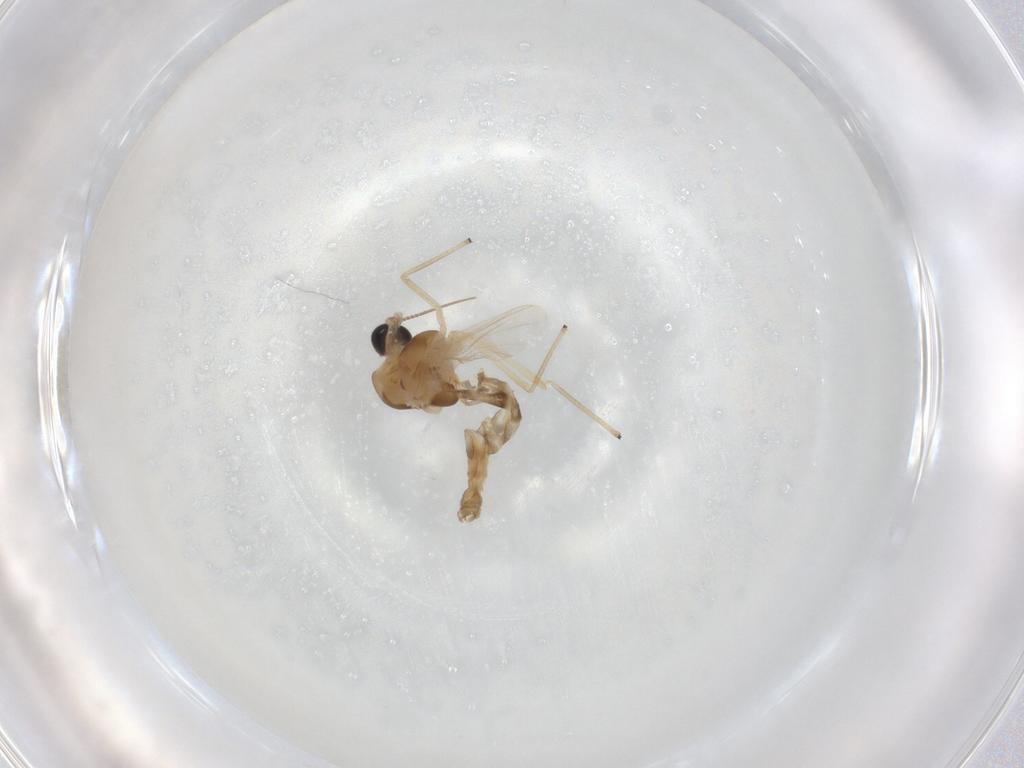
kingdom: Animalia
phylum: Arthropoda
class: Insecta
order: Diptera
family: Chironomidae
